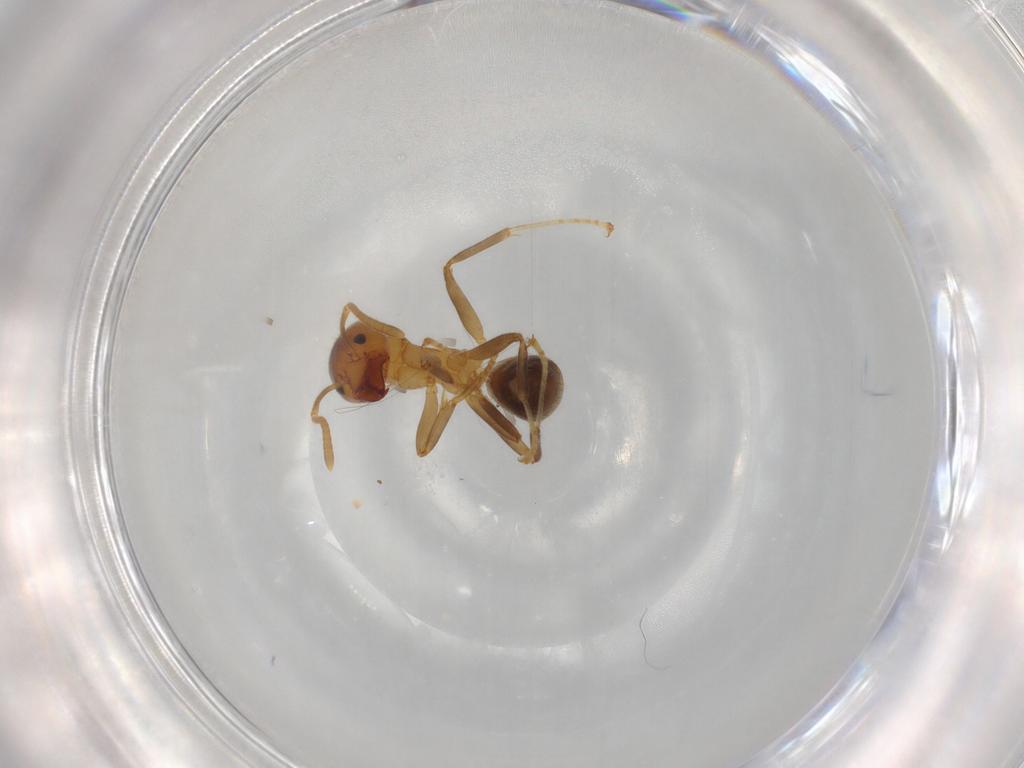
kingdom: Animalia
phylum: Arthropoda
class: Insecta
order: Hymenoptera
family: Formicidae
